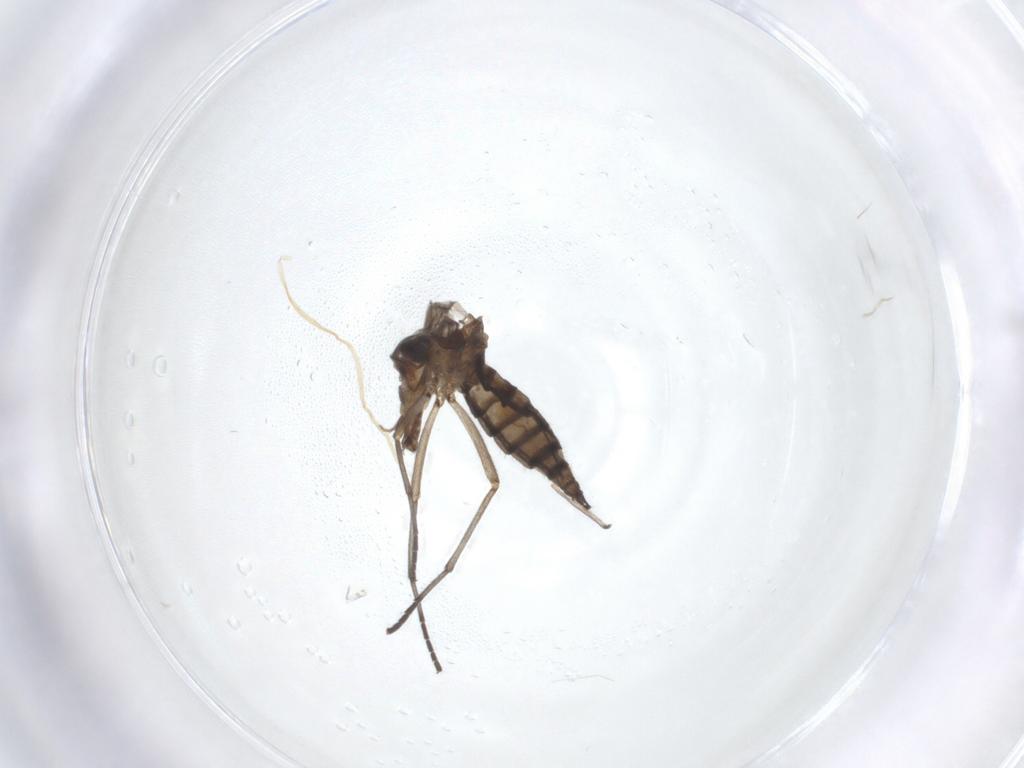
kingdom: Animalia
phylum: Arthropoda
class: Insecta
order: Diptera
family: Sciaridae
